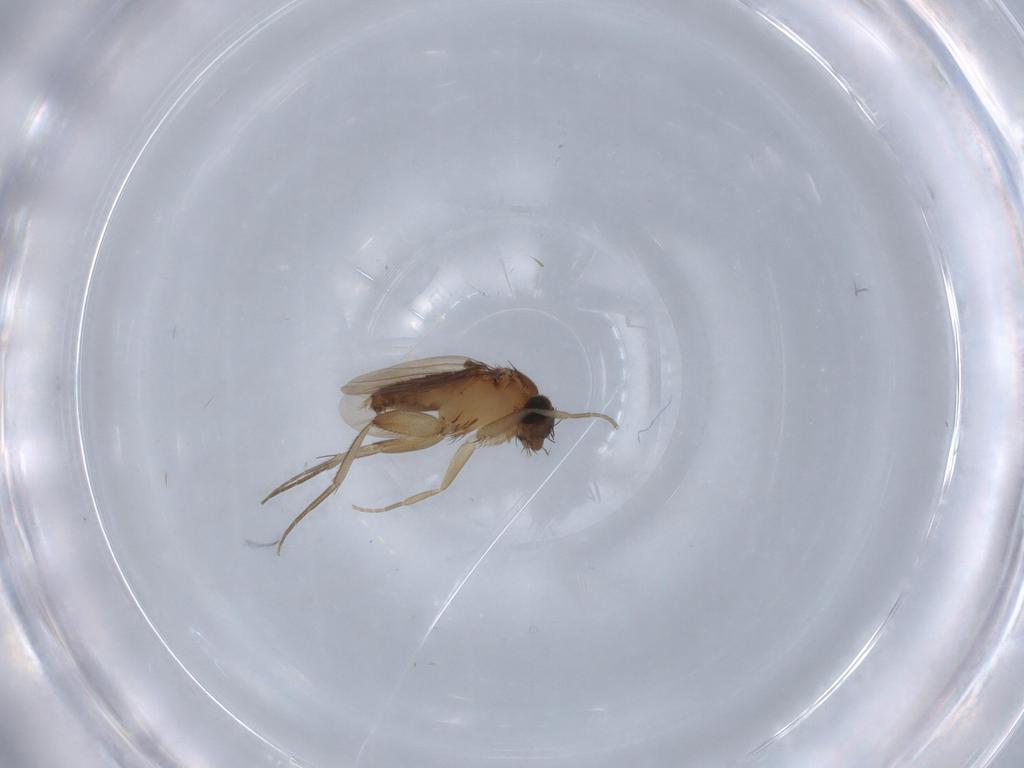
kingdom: Animalia
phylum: Arthropoda
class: Insecta
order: Diptera
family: Phoridae
